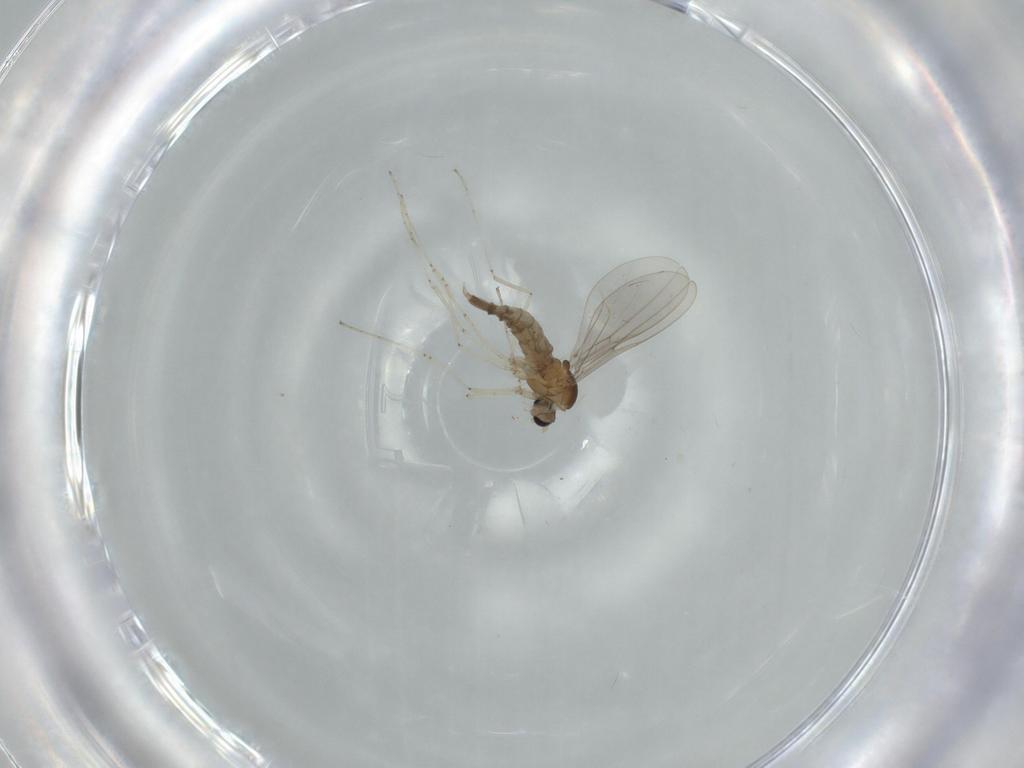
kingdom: Animalia
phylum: Arthropoda
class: Insecta
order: Diptera
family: Cecidomyiidae
